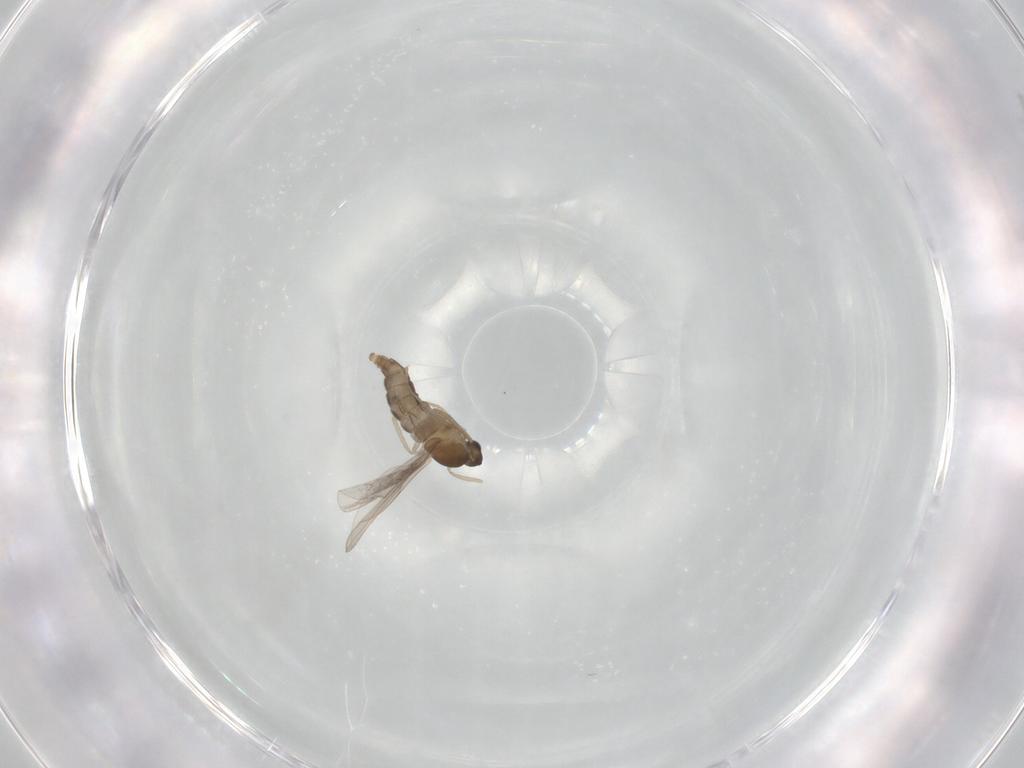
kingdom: Animalia
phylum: Arthropoda
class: Insecta
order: Diptera
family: Cecidomyiidae
